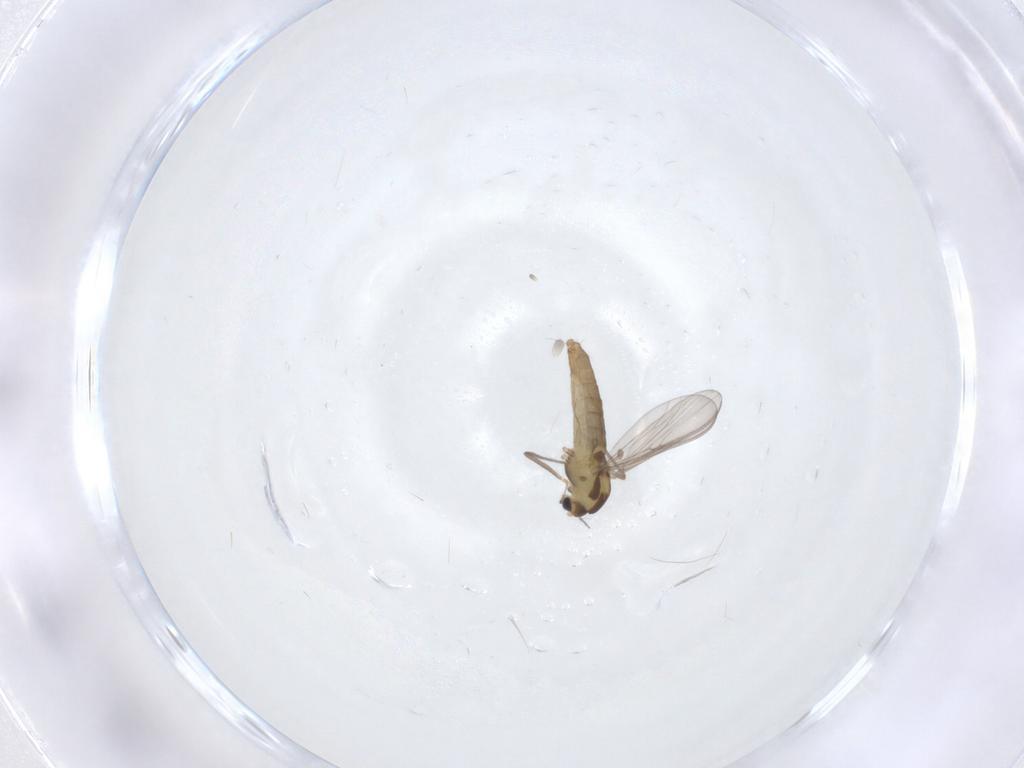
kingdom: Animalia
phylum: Arthropoda
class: Insecta
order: Diptera
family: Chironomidae
